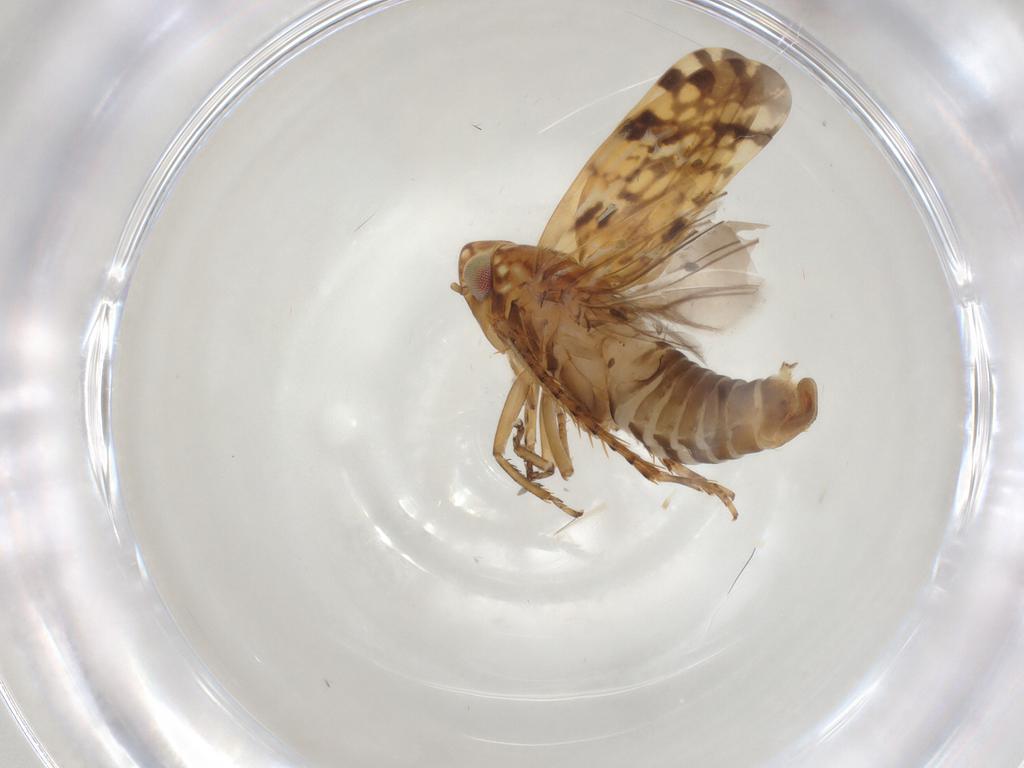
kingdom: Animalia
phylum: Arthropoda
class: Insecta
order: Hemiptera
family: Cicadellidae
